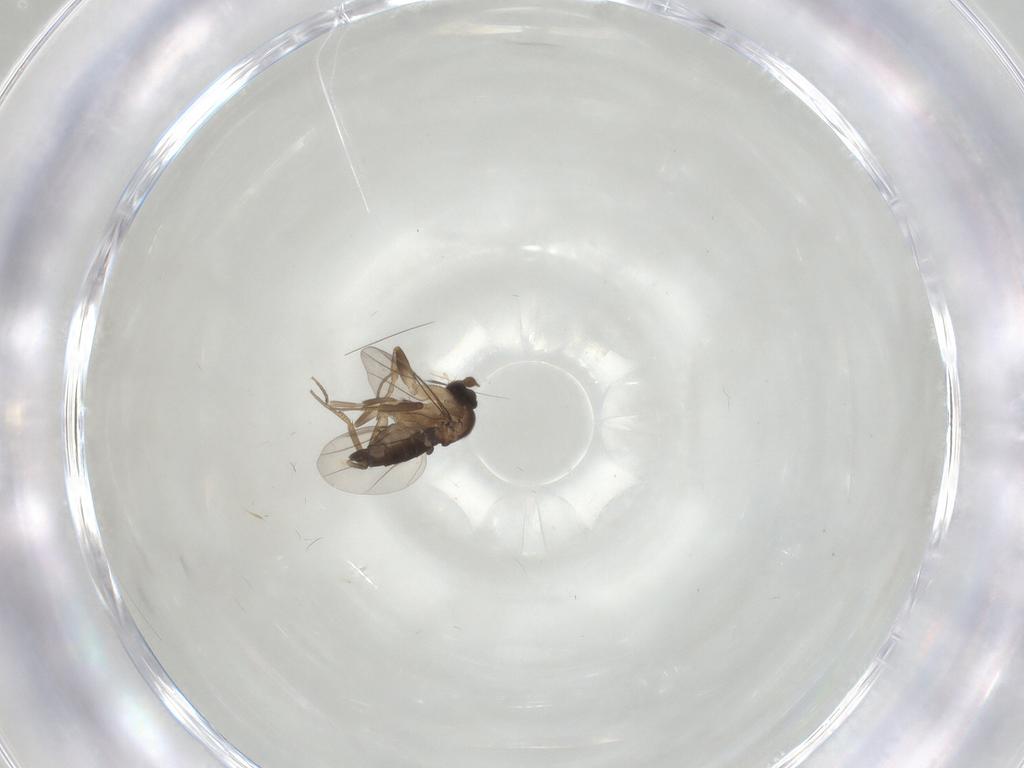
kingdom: Animalia
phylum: Arthropoda
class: Insecta
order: Diptera
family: Phoridae
